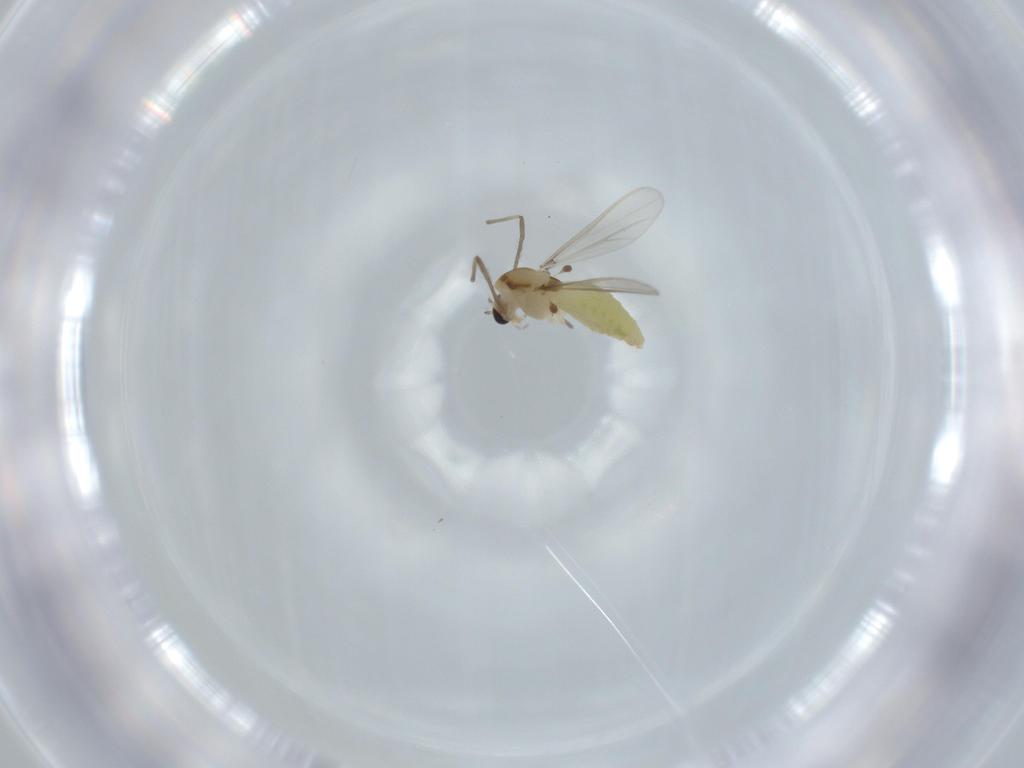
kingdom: Animalia
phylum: Arthropoda
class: Insecta
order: Diptera
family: Chironomidae
